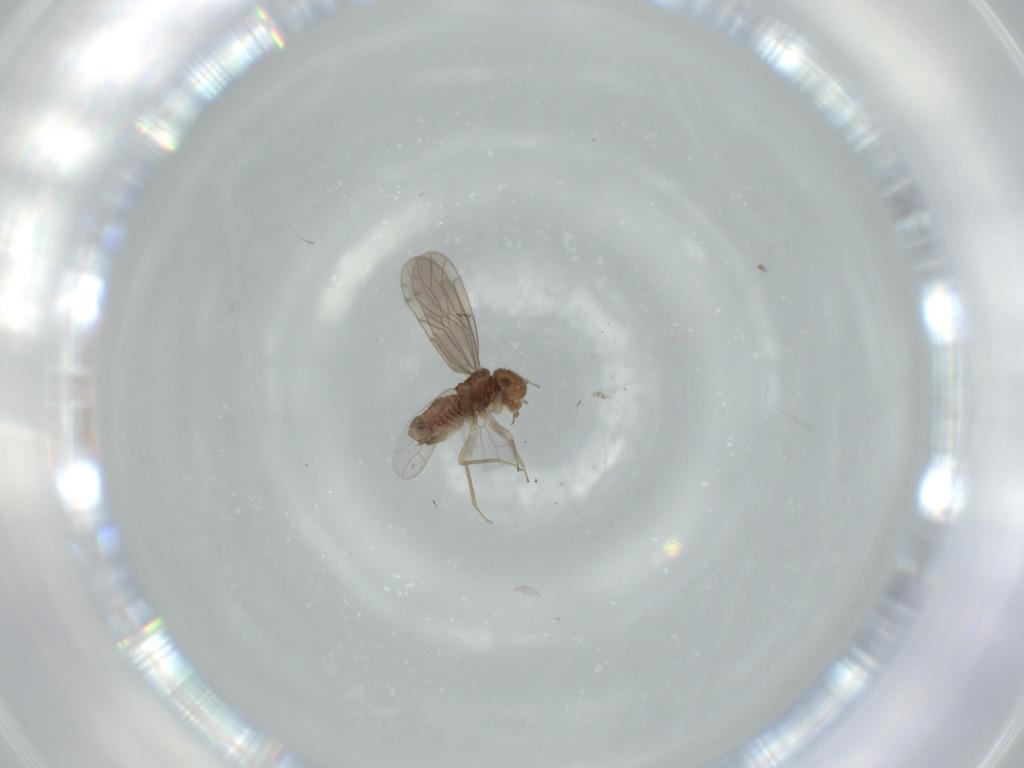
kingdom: Animalia
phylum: Arthropoda
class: Insecta
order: Psocodea
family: Ectopsocidae
